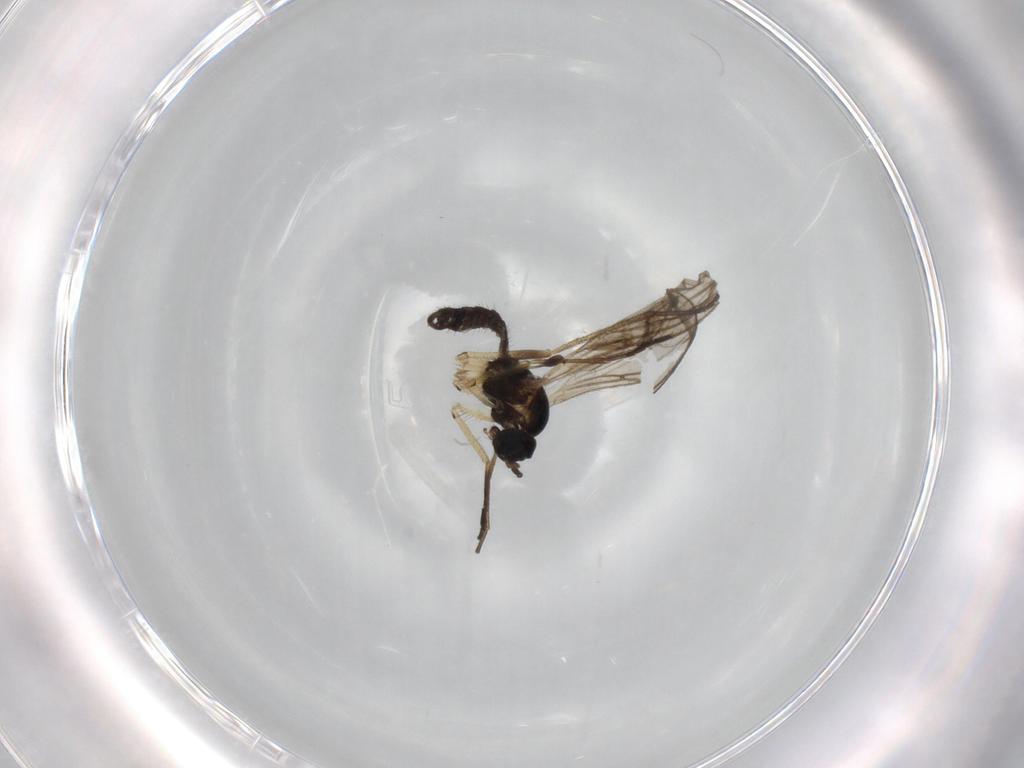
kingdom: Animalia
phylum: Arthropoda
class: Insecta
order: Diptera
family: Sciaridae
